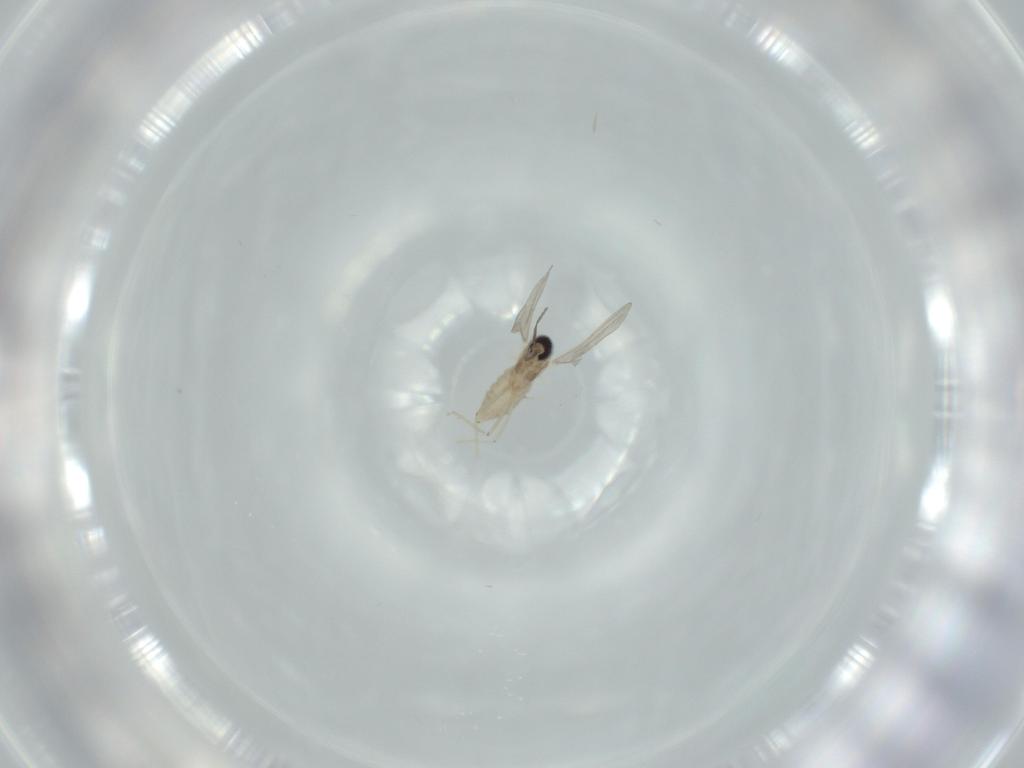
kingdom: Animalia
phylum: Arthropoda
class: Insecta
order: Diptera
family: Cecidomyiidae
